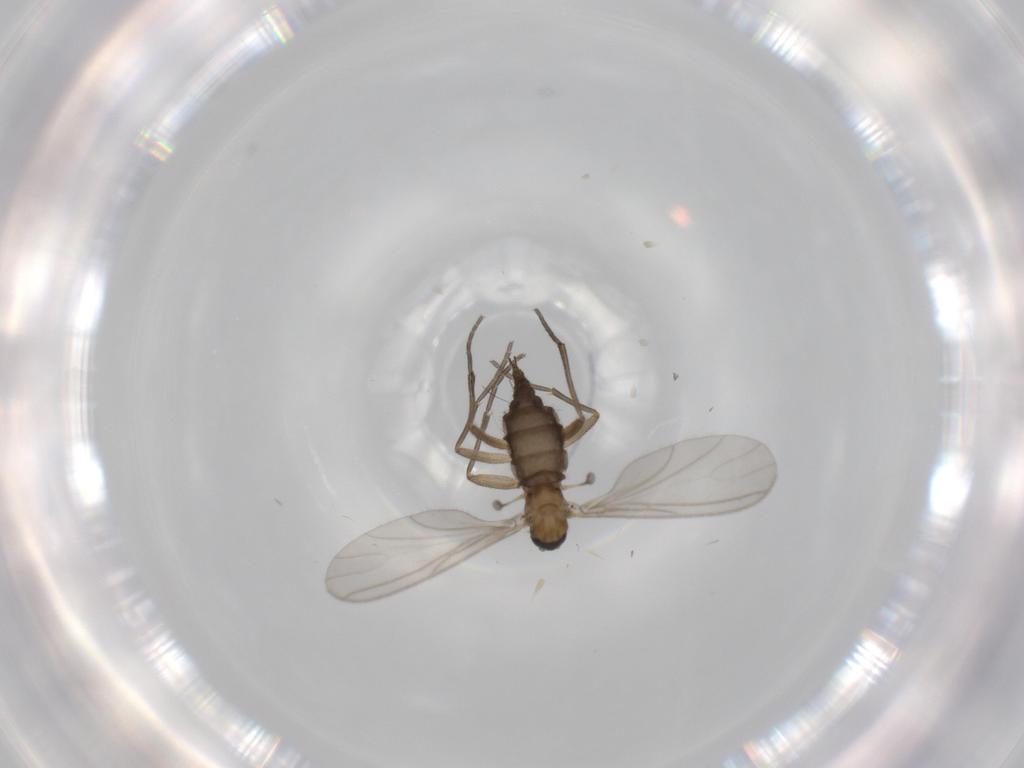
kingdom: Animalia
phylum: Arthropoda
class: Insecta
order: Diptera
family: Sciaridae
